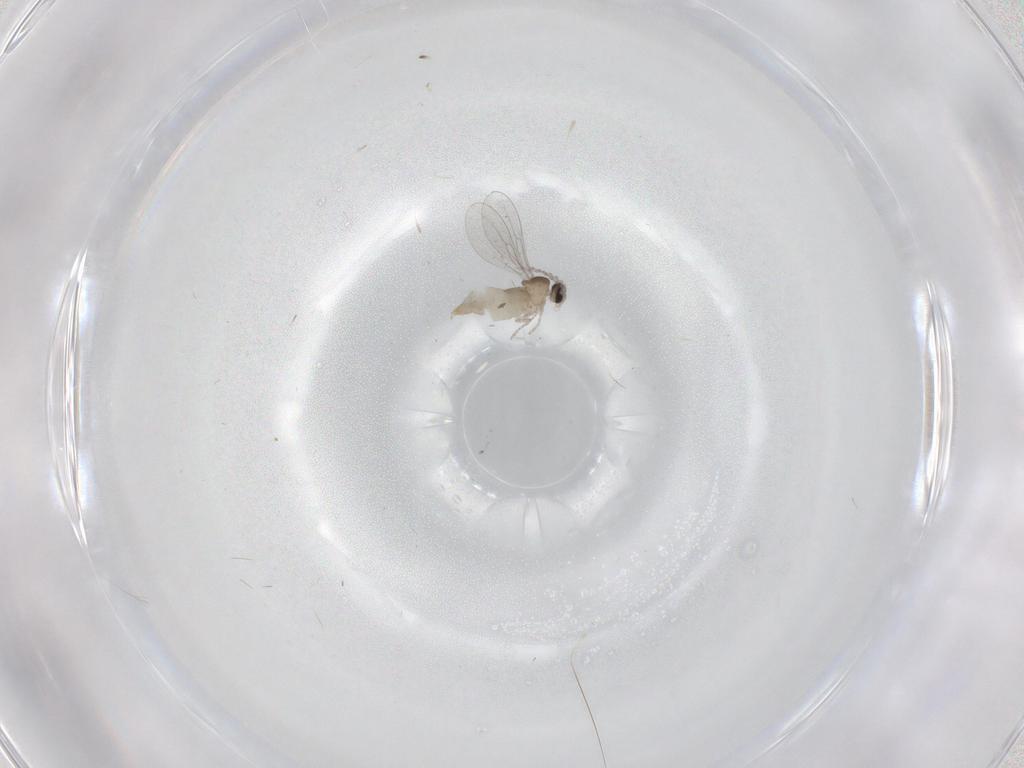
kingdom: Animalia
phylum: Arthropoda
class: Insecta
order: Diptera
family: Cecidomyiidae
